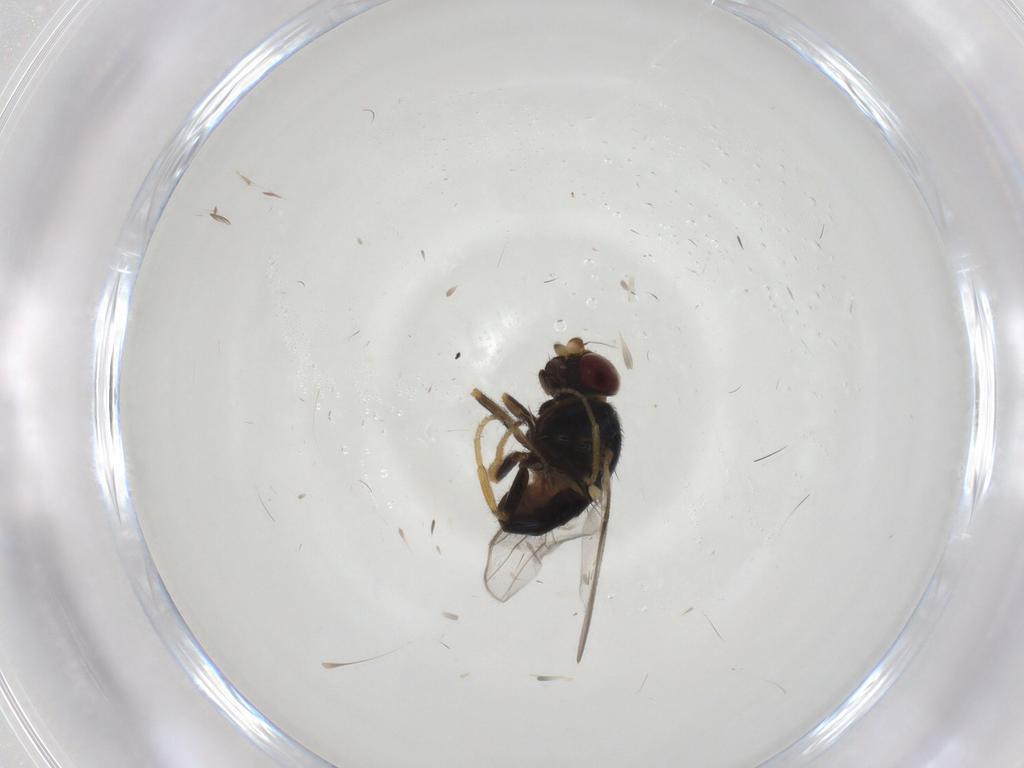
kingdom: Animalia
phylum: Arthropoda
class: Insecta
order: Diptera
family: Chloropidae
